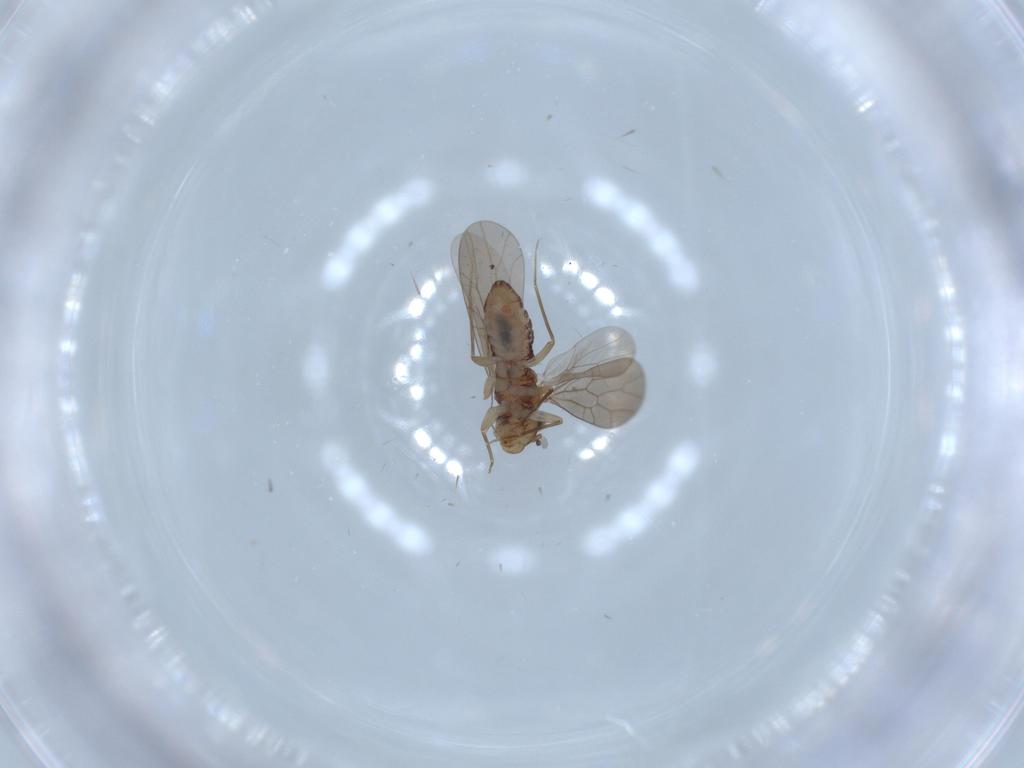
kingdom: Animalia
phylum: Arthropoda
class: Insecta
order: Psocodea
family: Lepidopsocidae
